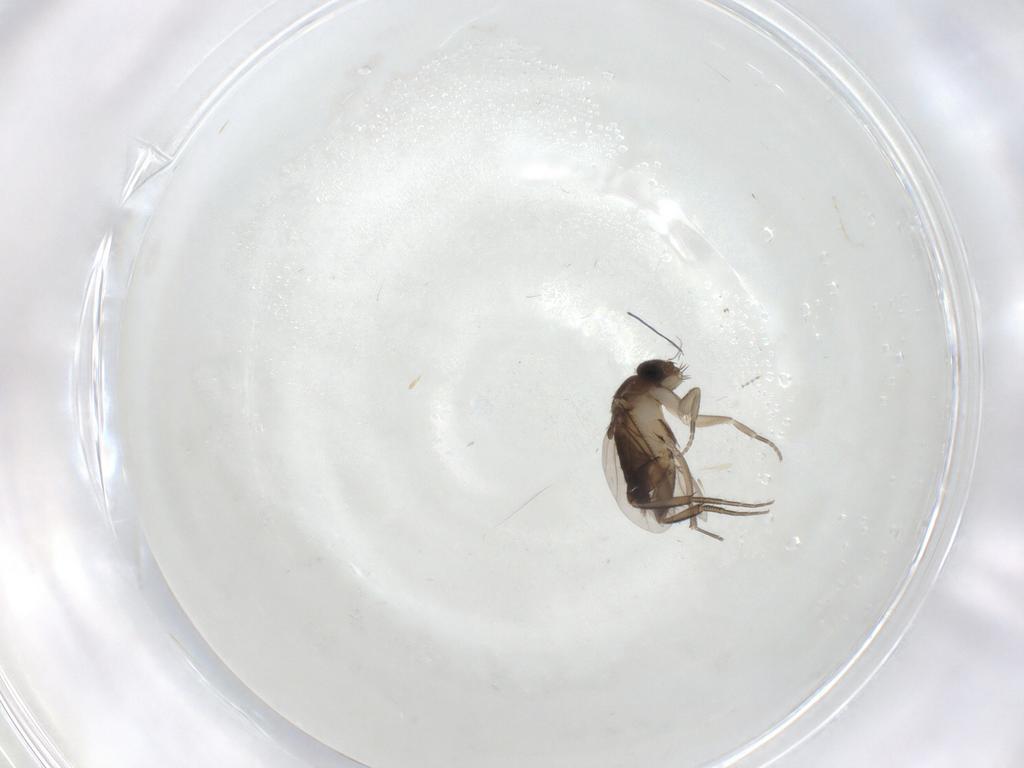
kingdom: Animalia
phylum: Arthropoda
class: Insecta
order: Diptera
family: Phoridae
